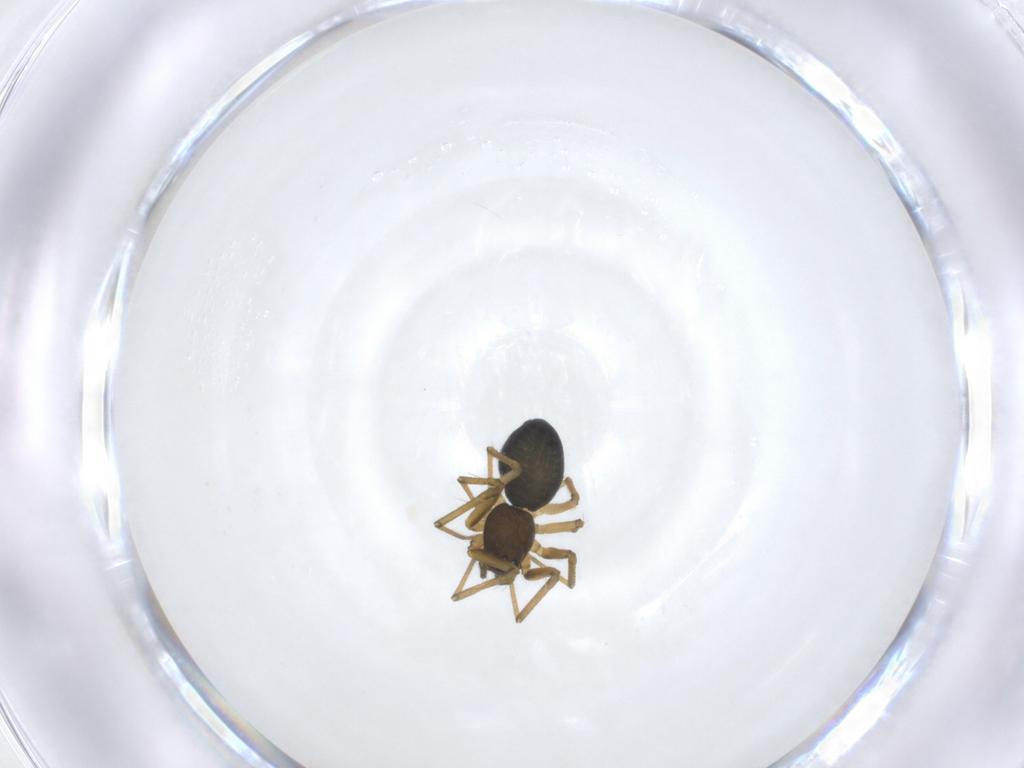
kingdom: Animalia
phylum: Arthropoda
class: Arachnida
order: Araneae
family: Linyphiidae
